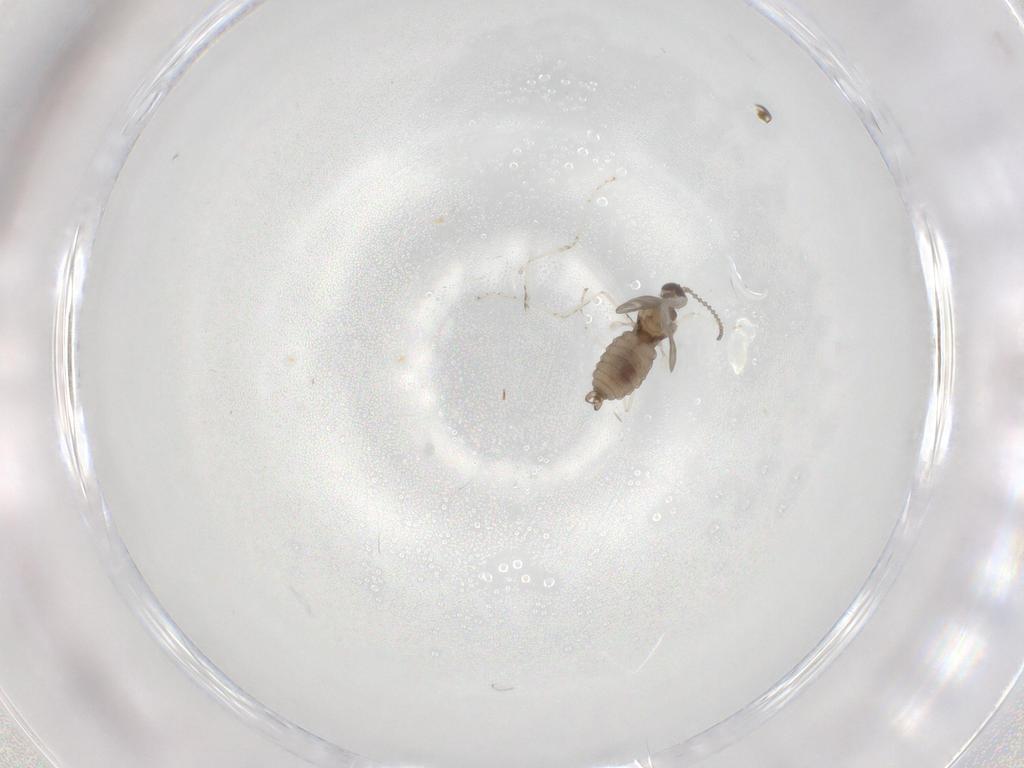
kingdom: Animalia
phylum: Arthropoda
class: Insecta
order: Diptera
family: Cecidomyiidae
